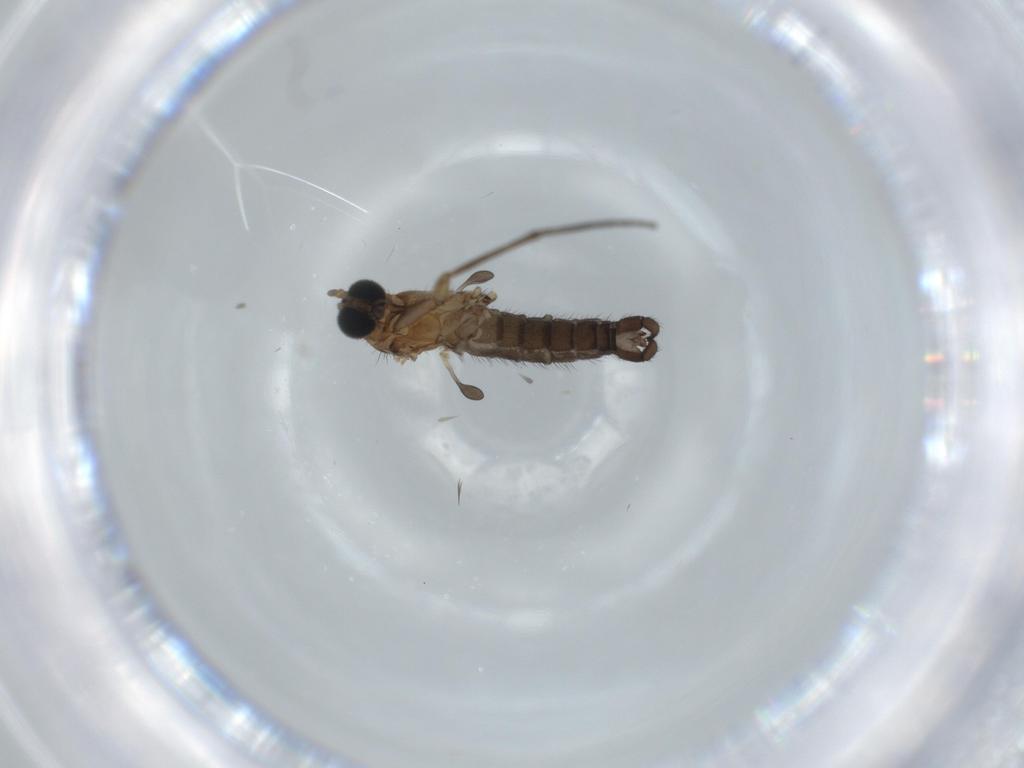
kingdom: Animalia
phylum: Arthropoda
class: Insecta
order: Diptera
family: Sciaridae
